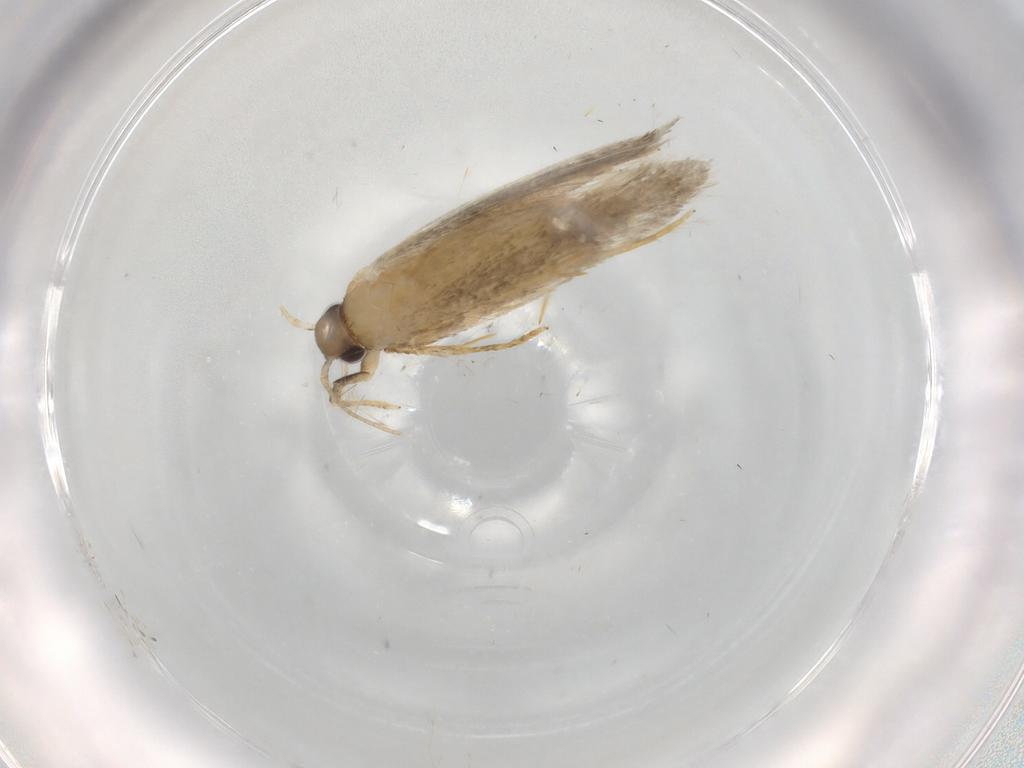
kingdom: Animalia
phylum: Arthropoda
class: Insecta
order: Lepidoptera
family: Autostichidae
